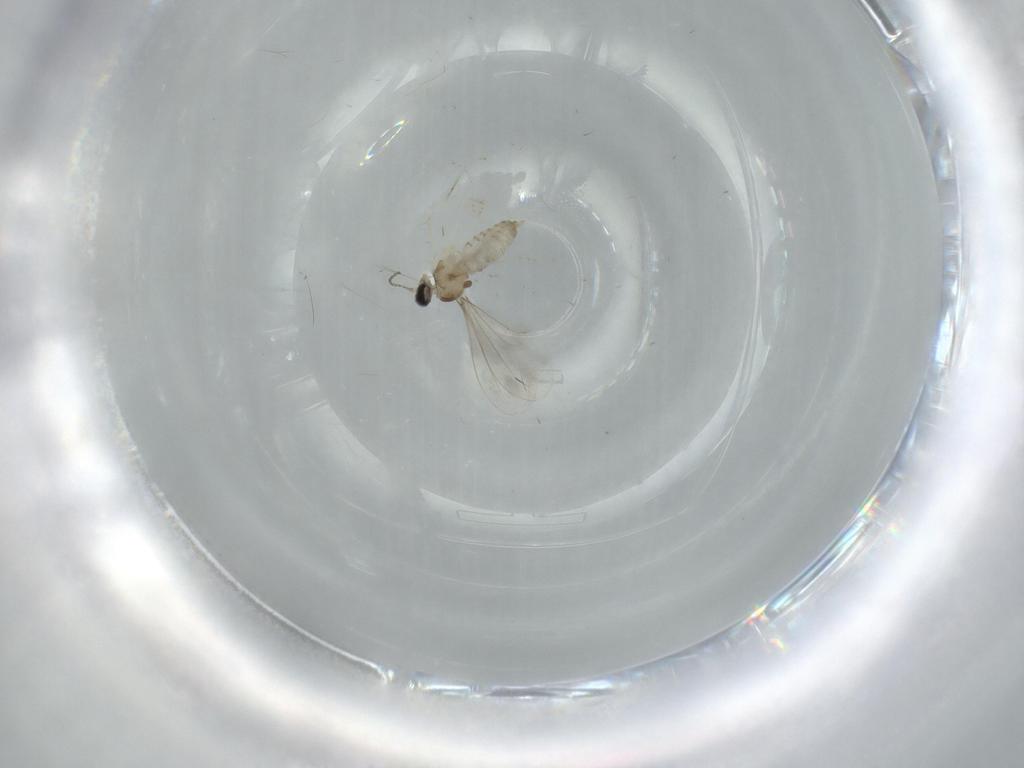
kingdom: Animalia
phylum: Arthropoda
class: Insecta
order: Diptera
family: Cecidomyiidae
